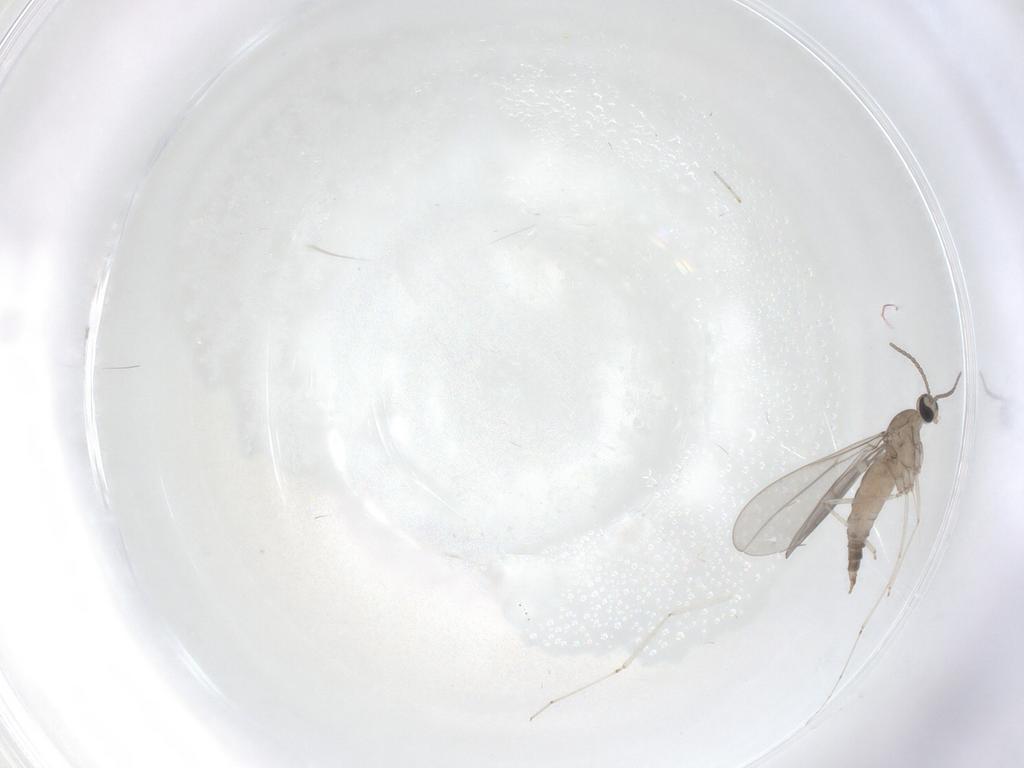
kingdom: Animalia
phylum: Arthropoda
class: Insecta
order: Diptera
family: Cecidomyiidae
